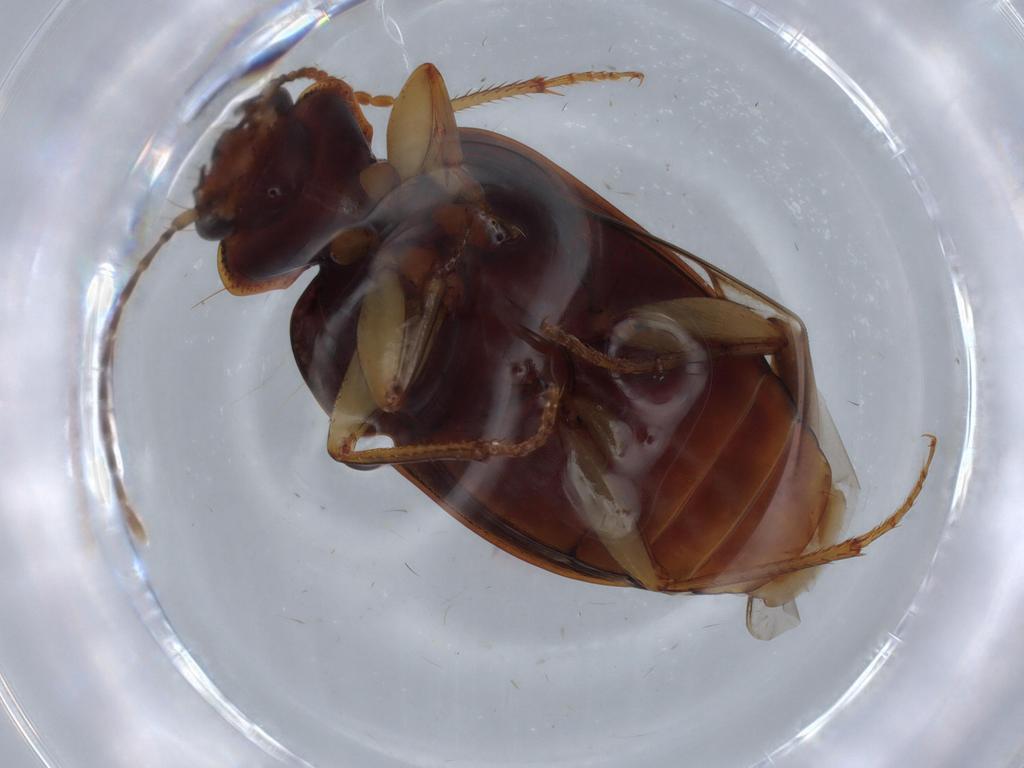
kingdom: Animalia
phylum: Arthropoda
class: Insecta
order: Coleoptera
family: Carabidae
